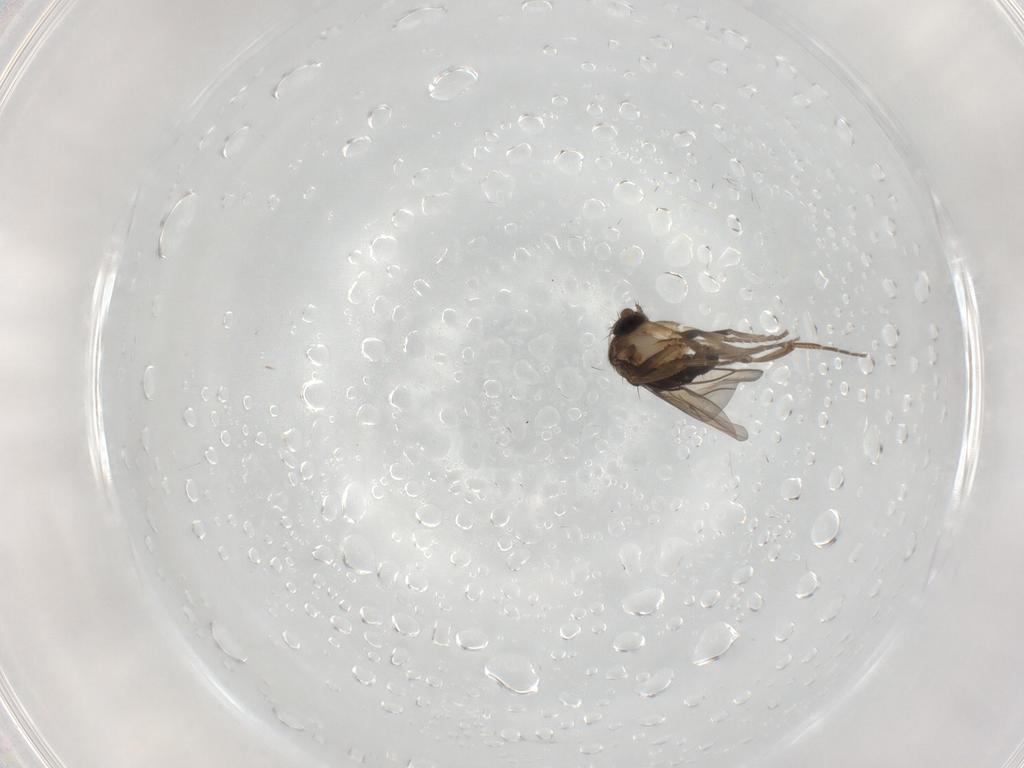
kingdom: Animalia
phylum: Arthropoda
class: Insecta
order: Diptera
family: Phoridae
